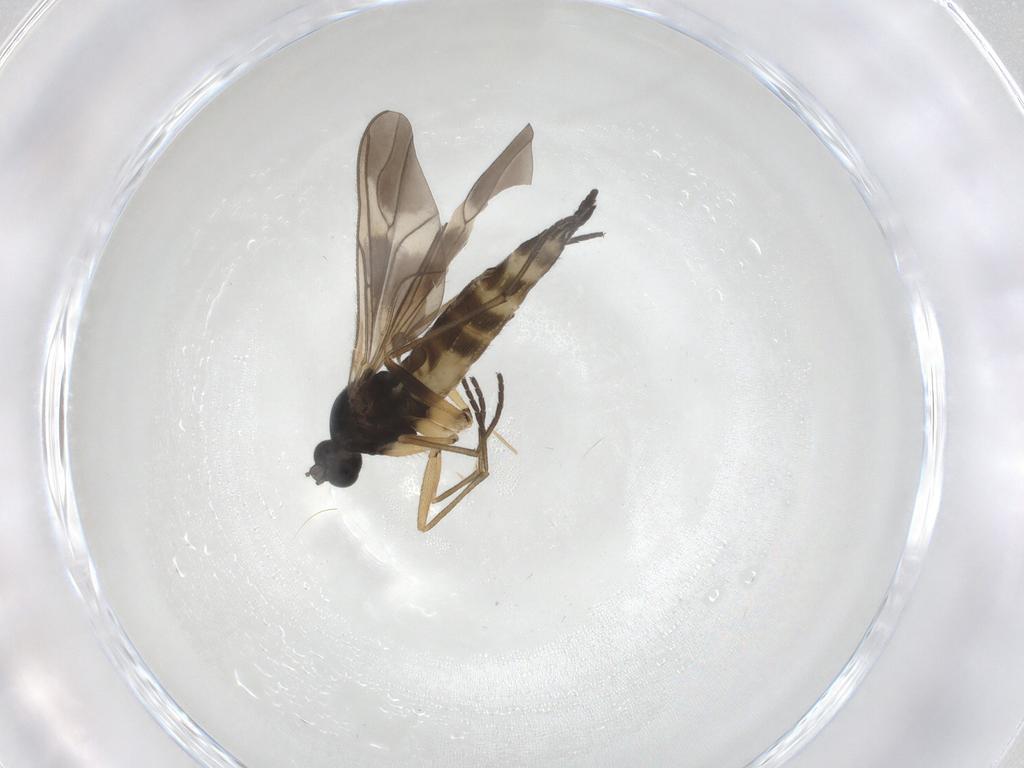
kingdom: Animalia
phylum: Arthropoda
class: Insecta
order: Diptera
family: Sciaridae
